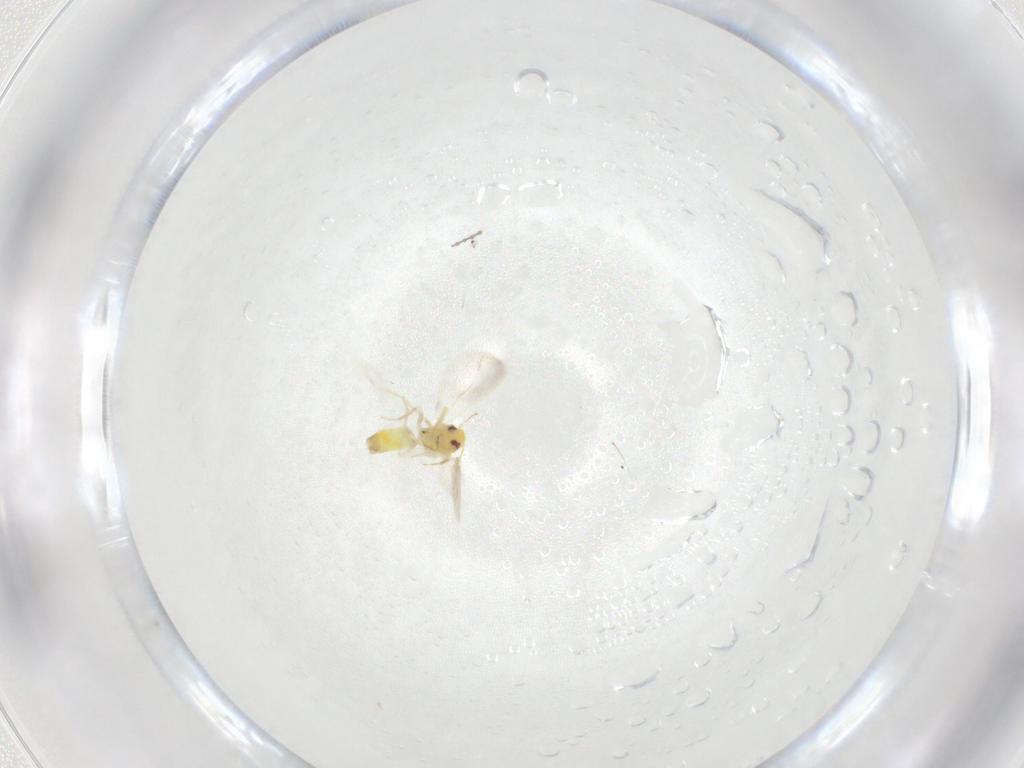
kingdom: Animalia
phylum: Arthropoda
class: Insecta
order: Hemiptera
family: Aleyrodidae
